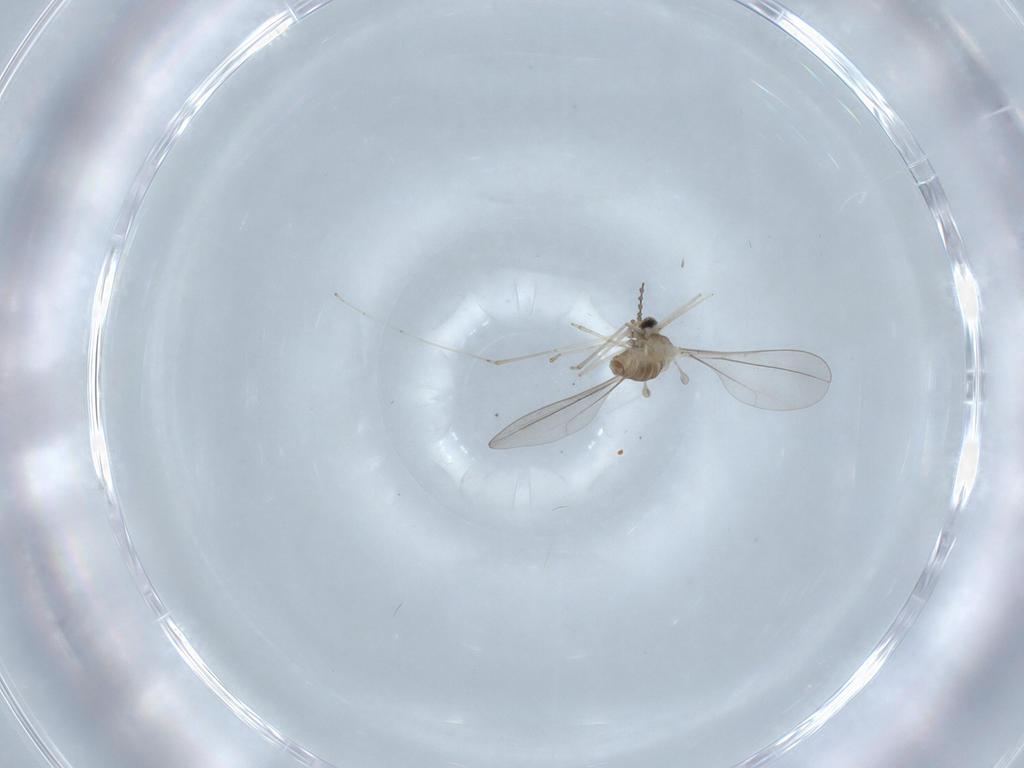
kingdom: Animalia
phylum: Arthropoda
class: Insecta
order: Diptera
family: Cecidomyiidae
